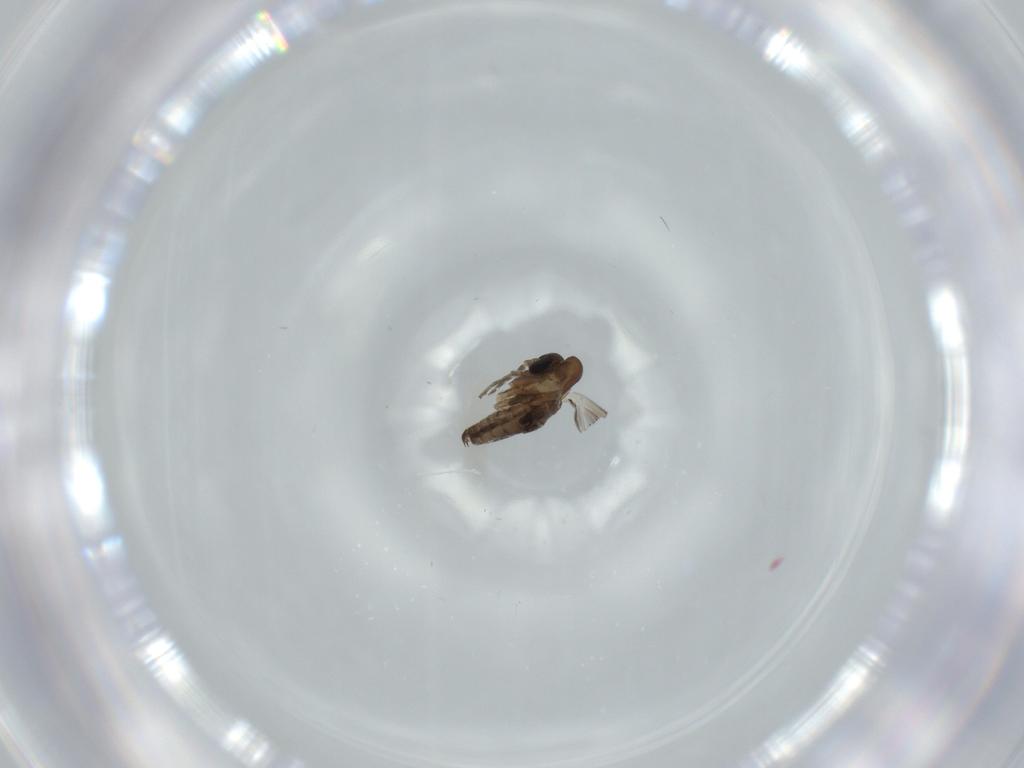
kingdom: Animalia
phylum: Arthropoda
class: Insecta
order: Diptera
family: Psychodidae
